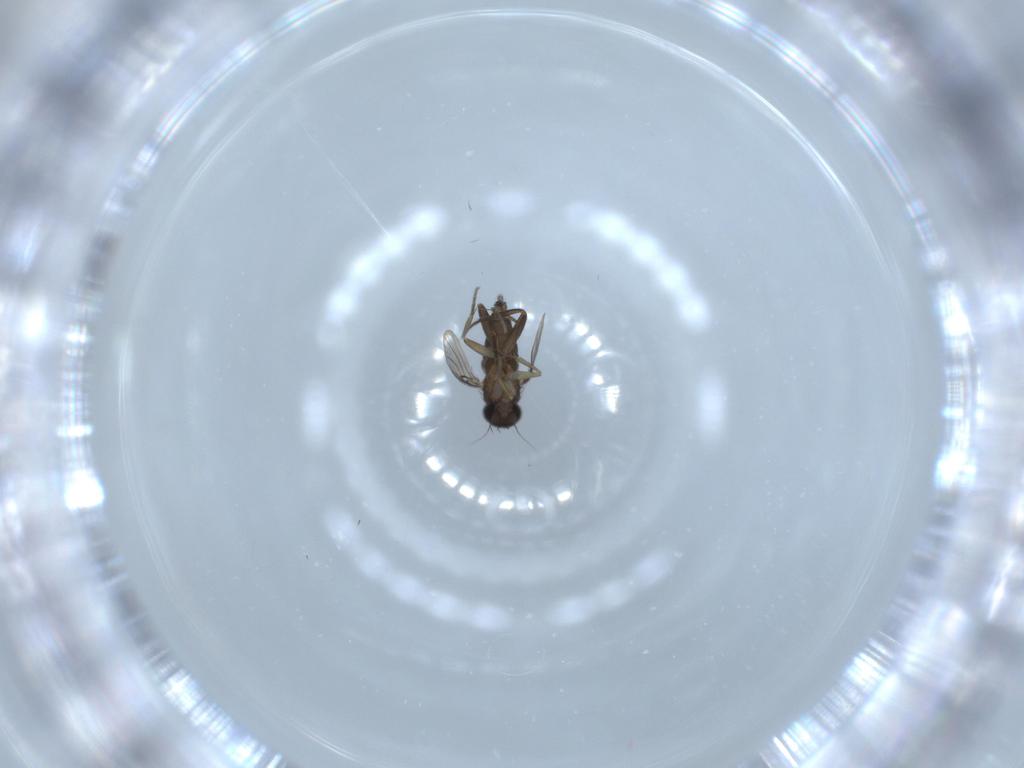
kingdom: Animalia
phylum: Arthropoda
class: Insecta
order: Diptera
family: Phoridae
